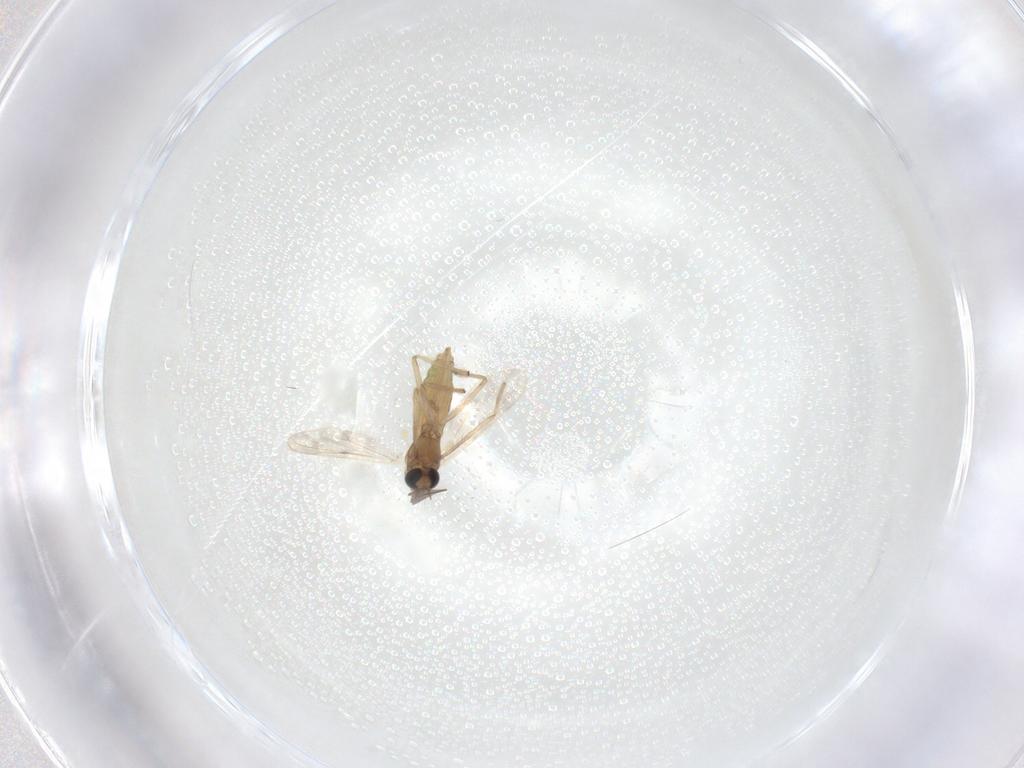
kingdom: Animalia
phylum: Arthropoda
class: Insecta
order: Diptera
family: Chironomidae
